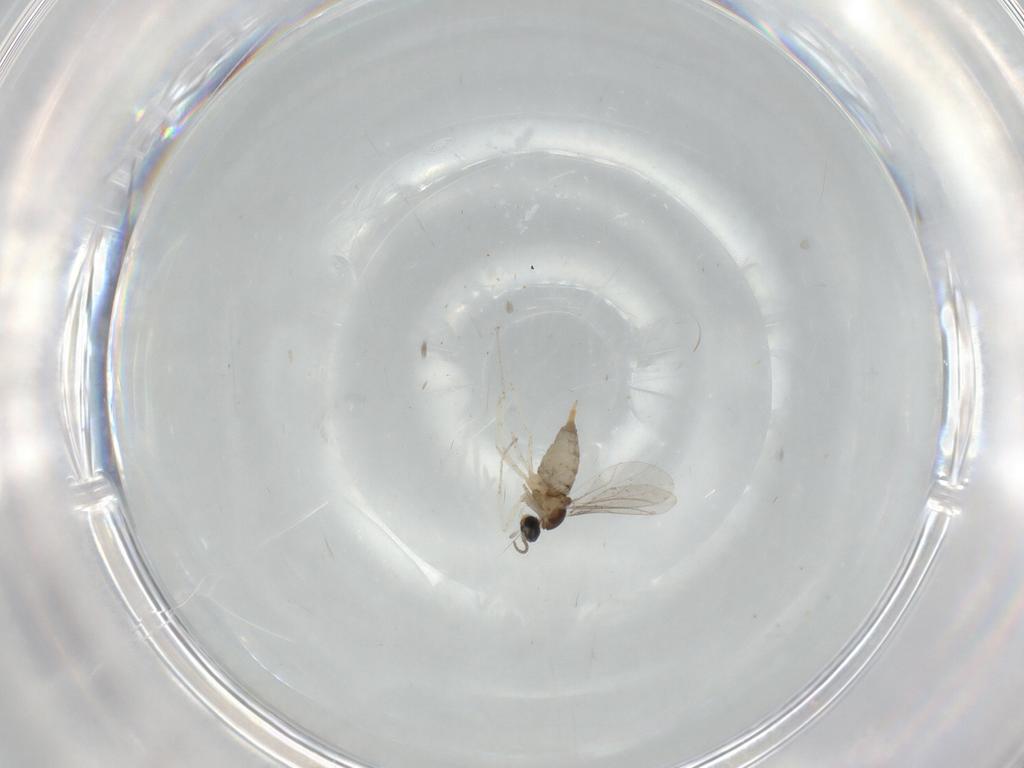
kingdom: Animalia
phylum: Arthropoda
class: Insecta
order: Diptera
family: Cecidomyiidae
